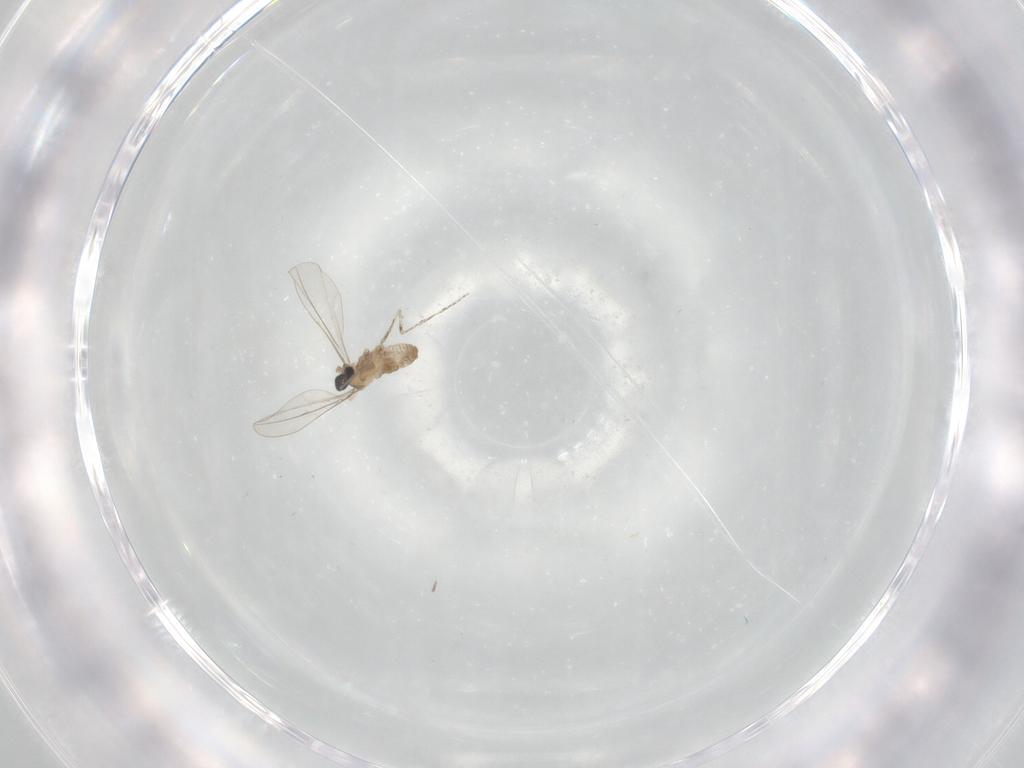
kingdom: Animalia
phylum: Arthropoda
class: Insecta
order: Diptera
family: Cecidomyiidae
